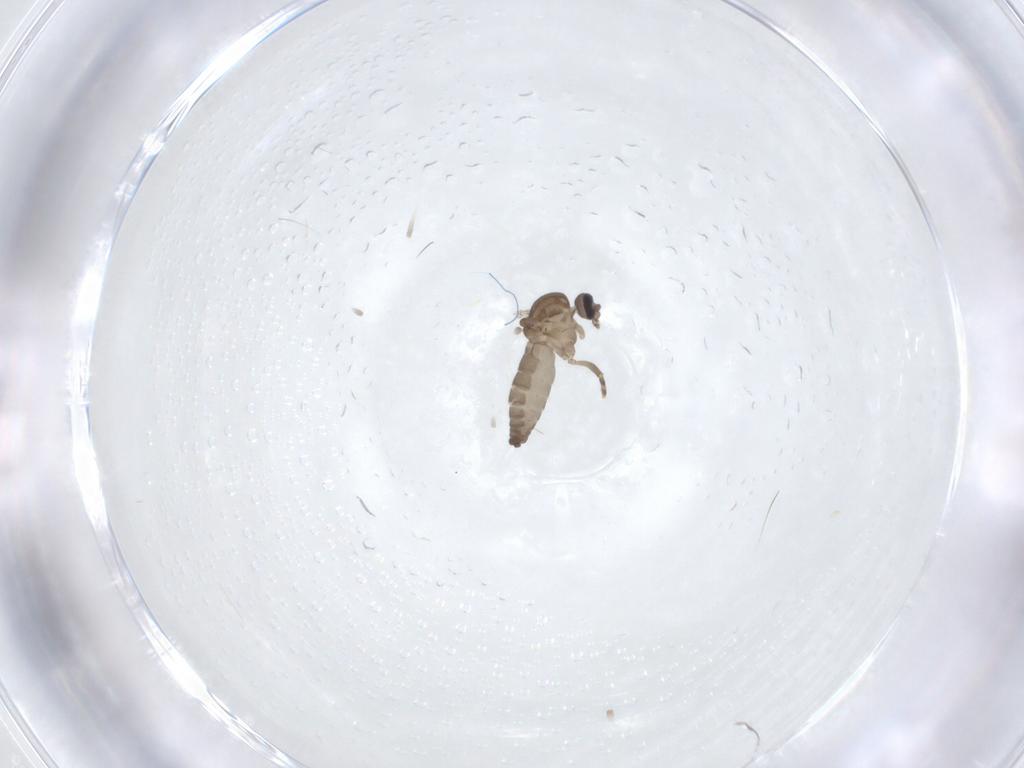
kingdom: Animalia
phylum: Arthropoda
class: Insecta
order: Diptera
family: Ceratopogonidae
